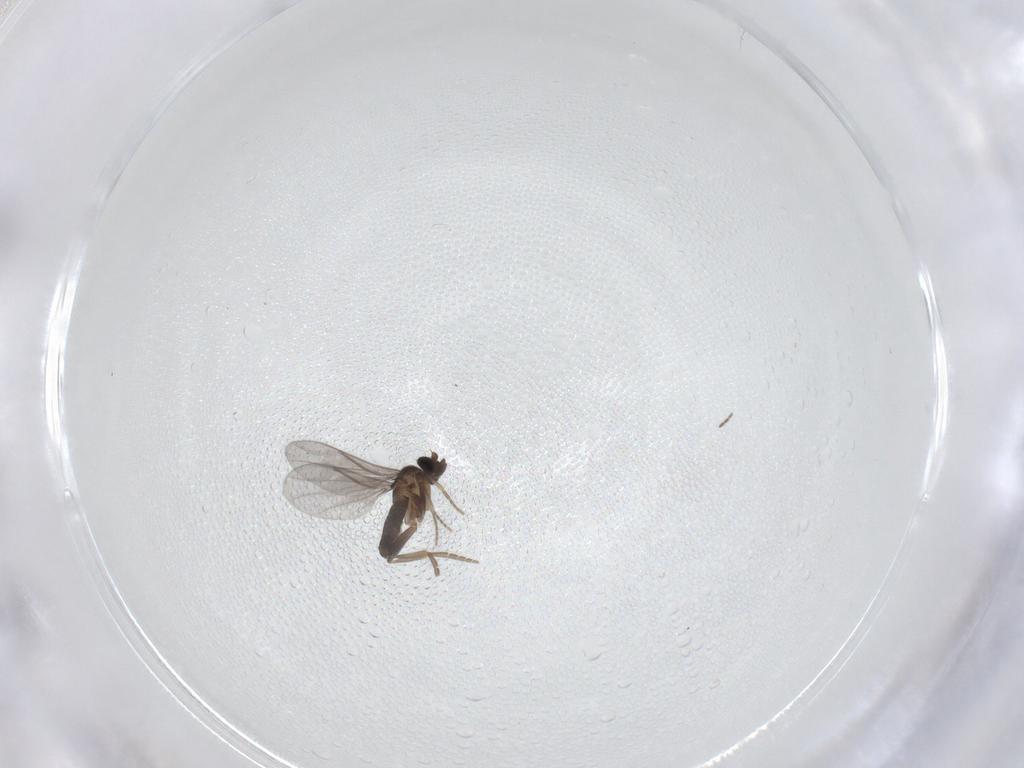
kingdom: Animalia
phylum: Arthropoda
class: Insecta
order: Diptera
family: Phoridae
